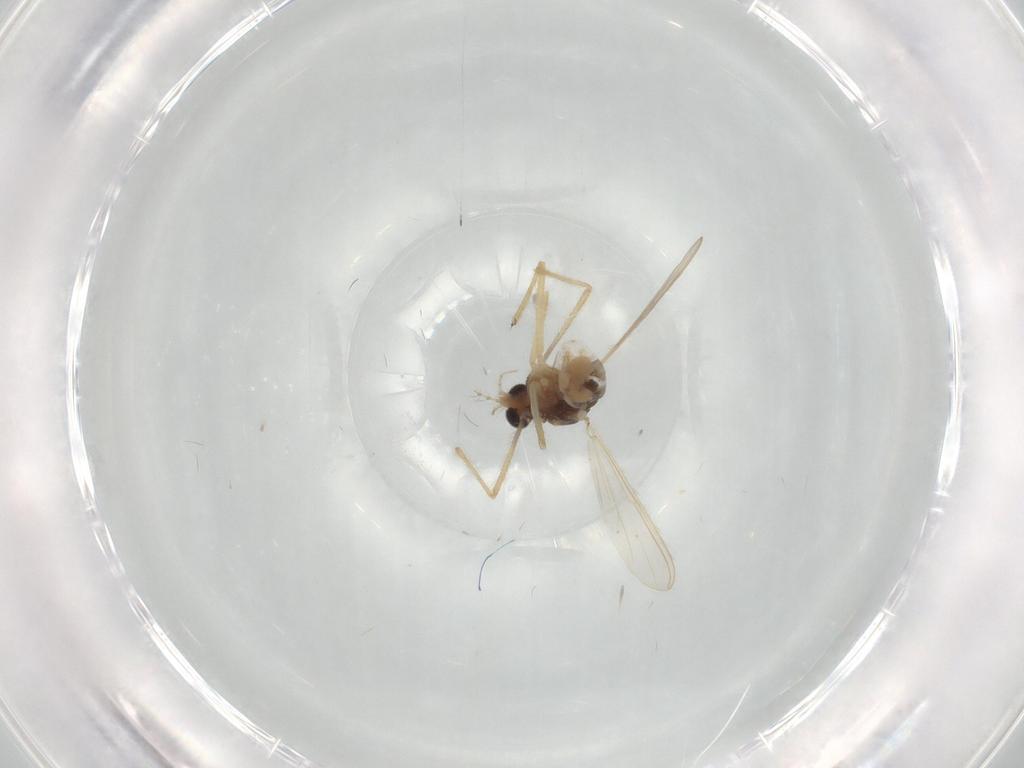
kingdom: Animalia
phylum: Arthropoda
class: Insecta
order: Diptera
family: Chironomidae
